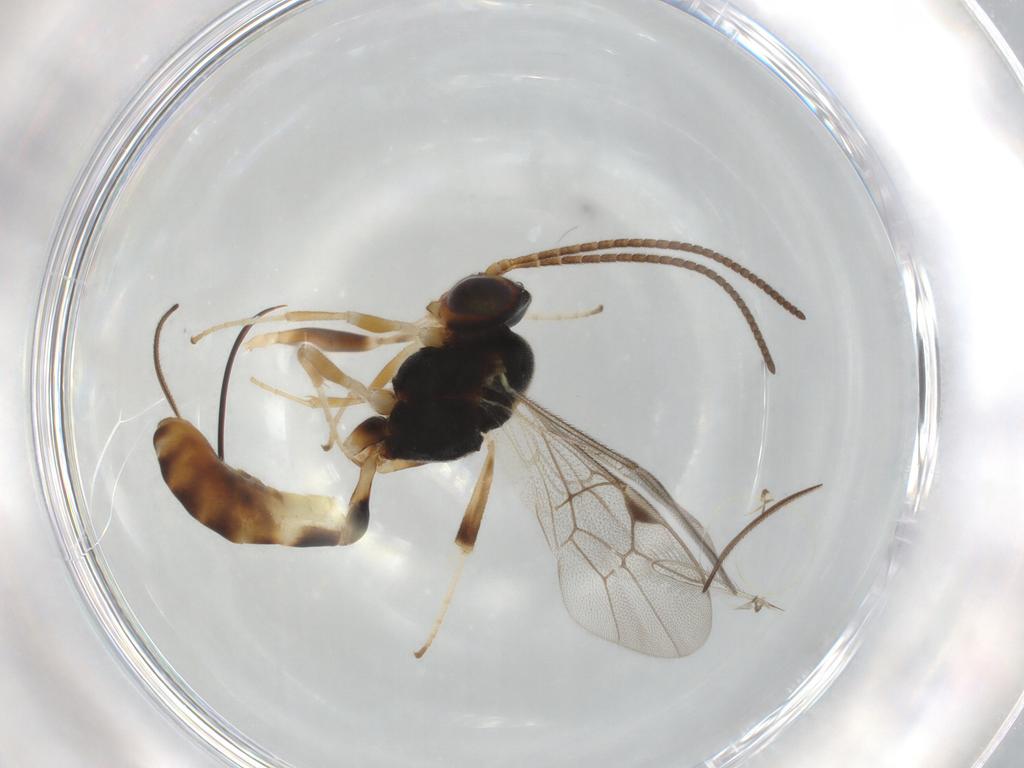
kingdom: Animalia
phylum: Arthropoda
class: Insecta
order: Hymenoptera
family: Ichneumonidae
